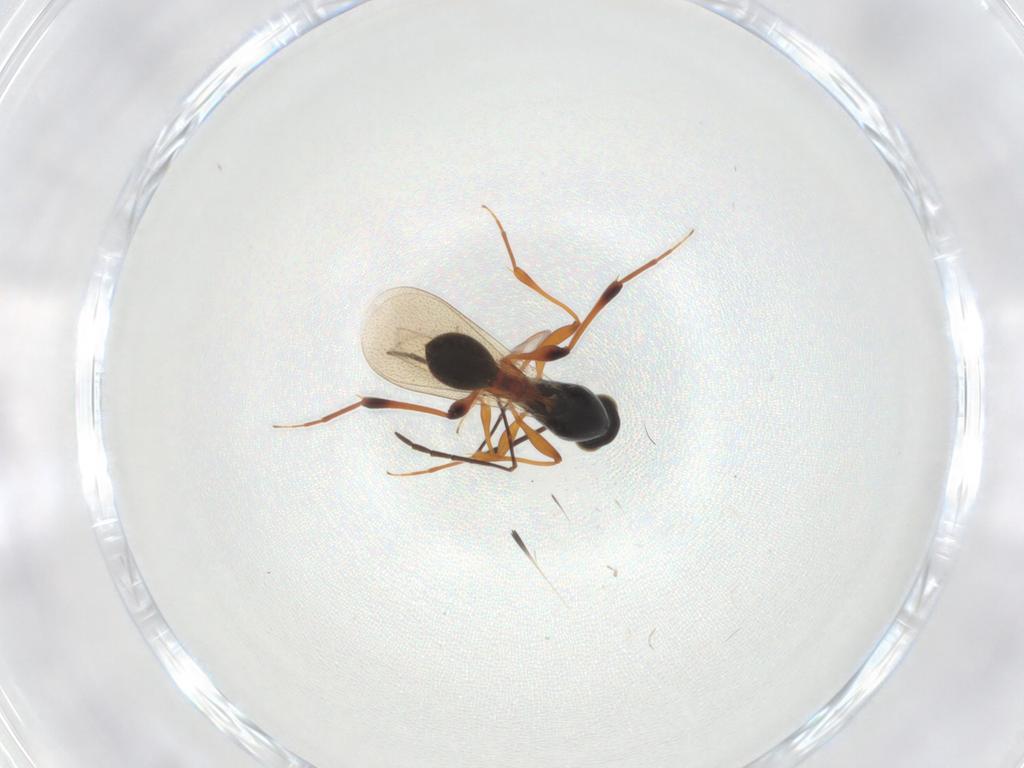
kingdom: Animalia
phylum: Arthropoda
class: Insecta
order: Hymenoptera
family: Platygastridae
